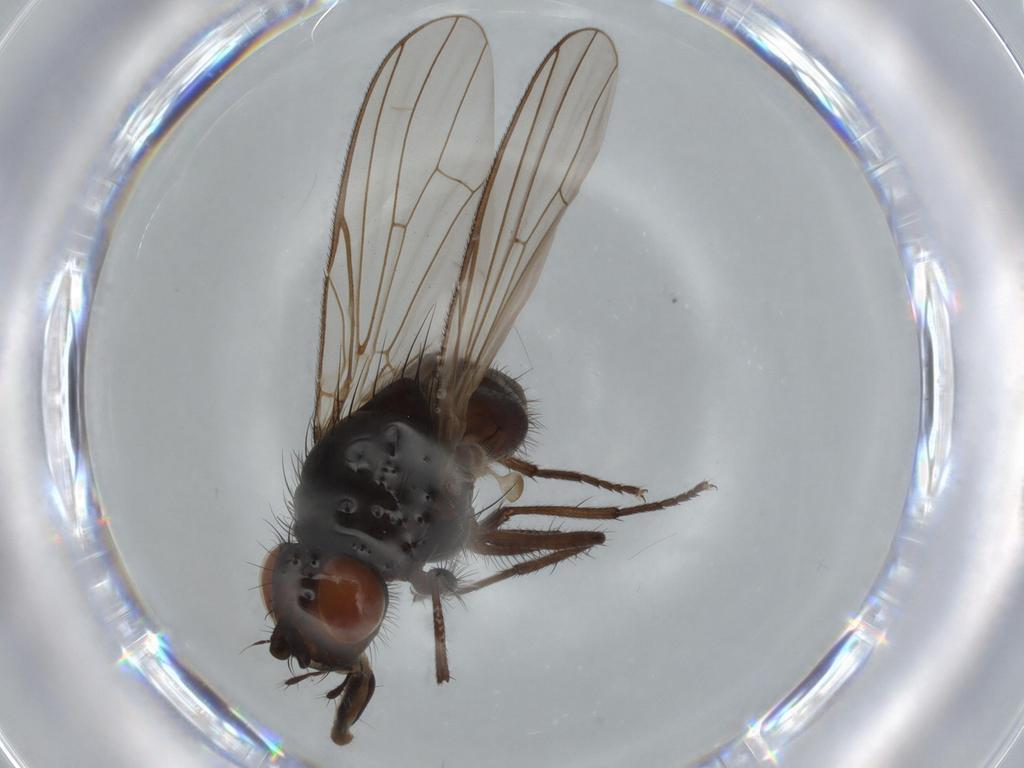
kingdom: Animalia
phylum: Arthropoda
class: Insecta
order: Diptera
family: Anthomyiidae
